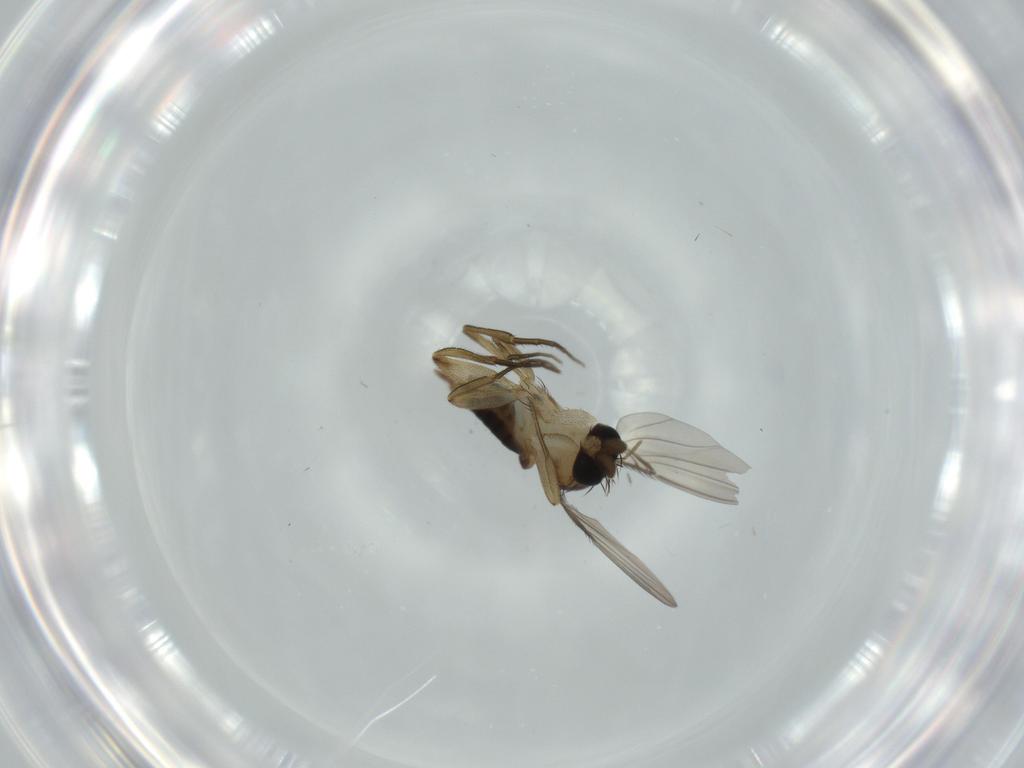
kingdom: Animalia
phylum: Arthropoda
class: Insecta
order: Diptera
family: Phoridae
